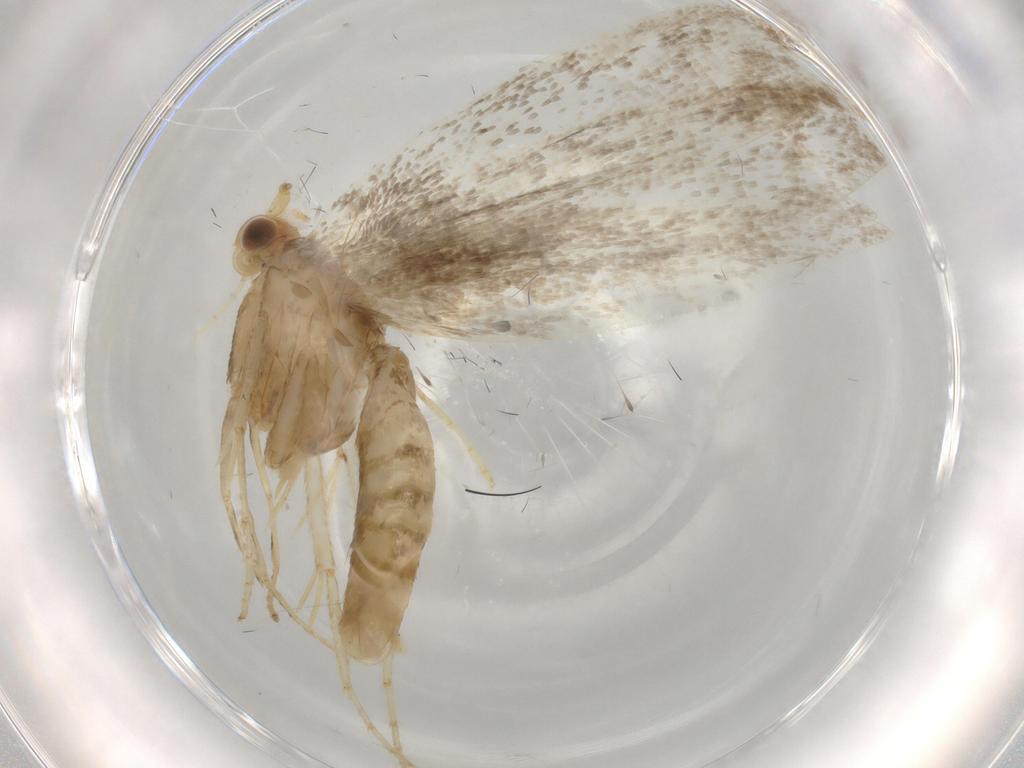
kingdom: Animalia
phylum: Arthropoda
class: Insecta
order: Lepidoptera
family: Argyresthiidae
